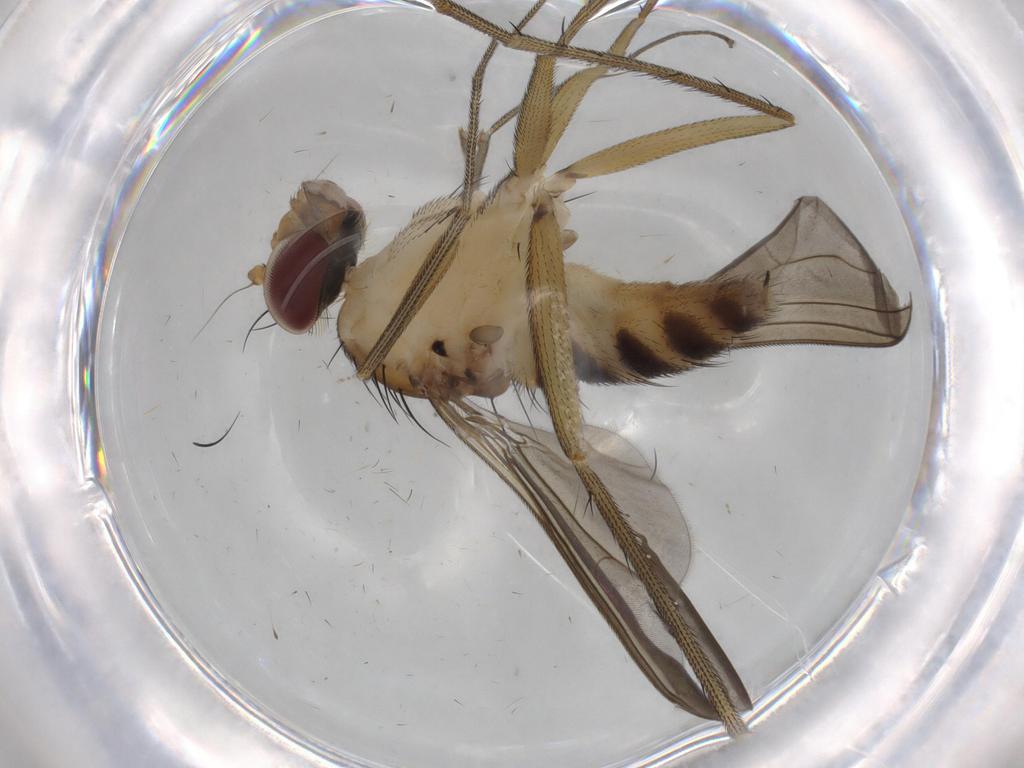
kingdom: Animalia
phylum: Arthropoda
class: Insecta
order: Diptera
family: Dolichopodidae
